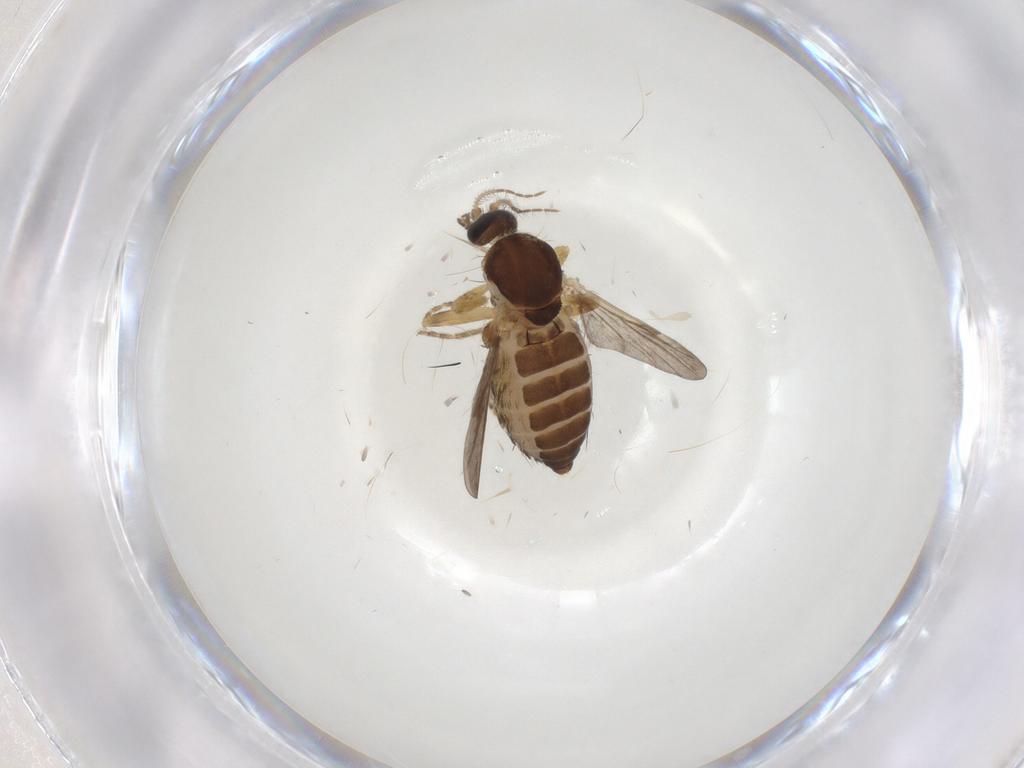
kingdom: Animalia
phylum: Arthropoda
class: Insecta
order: Diptera
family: Ceratopogonidae
